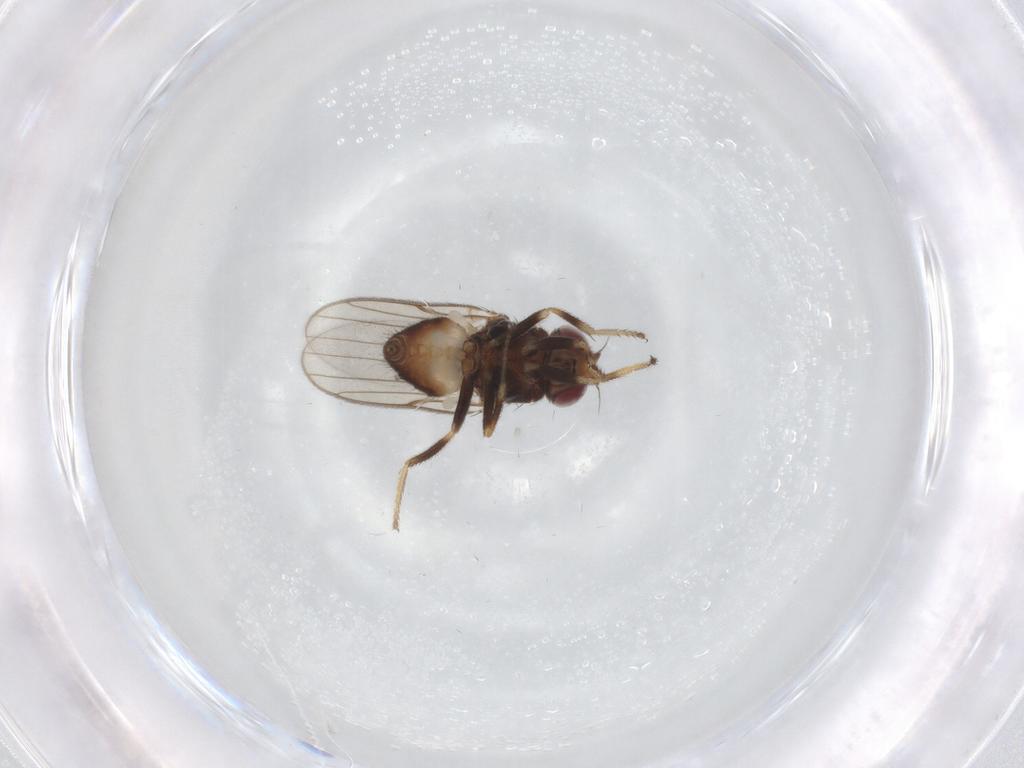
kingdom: Animalia
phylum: Arthropoda
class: Insecta
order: Diptera
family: Chloropidae
